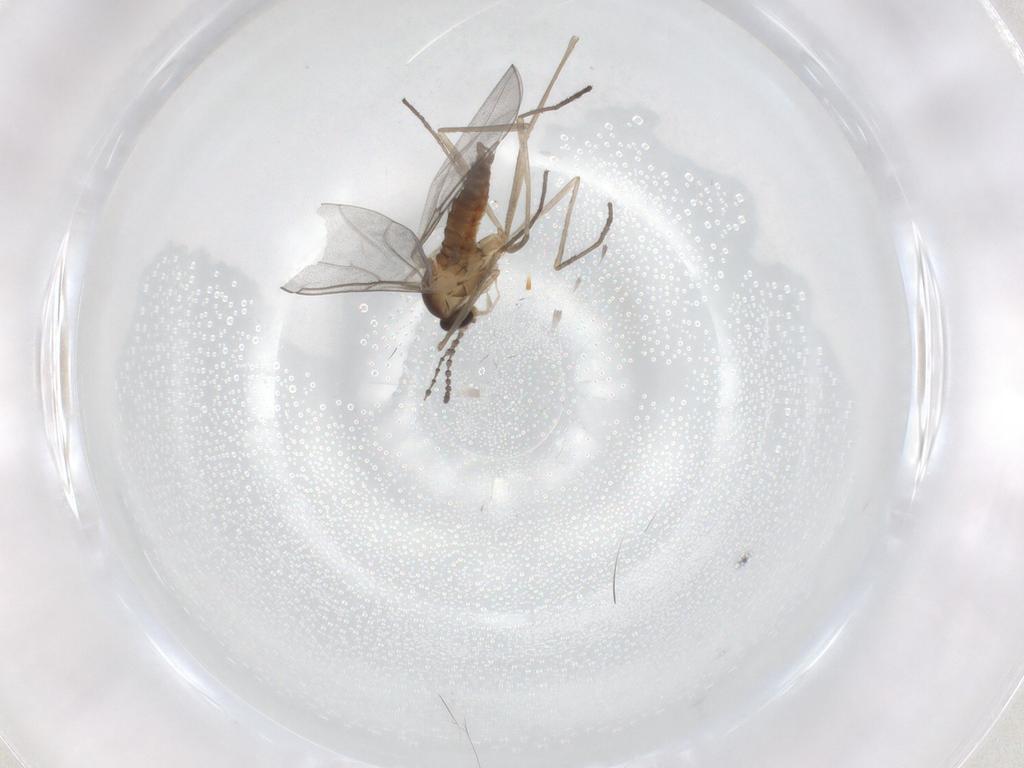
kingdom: Animalia
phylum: Arthropoda
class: Insecta
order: Diptera
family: Cecidomyiidae
